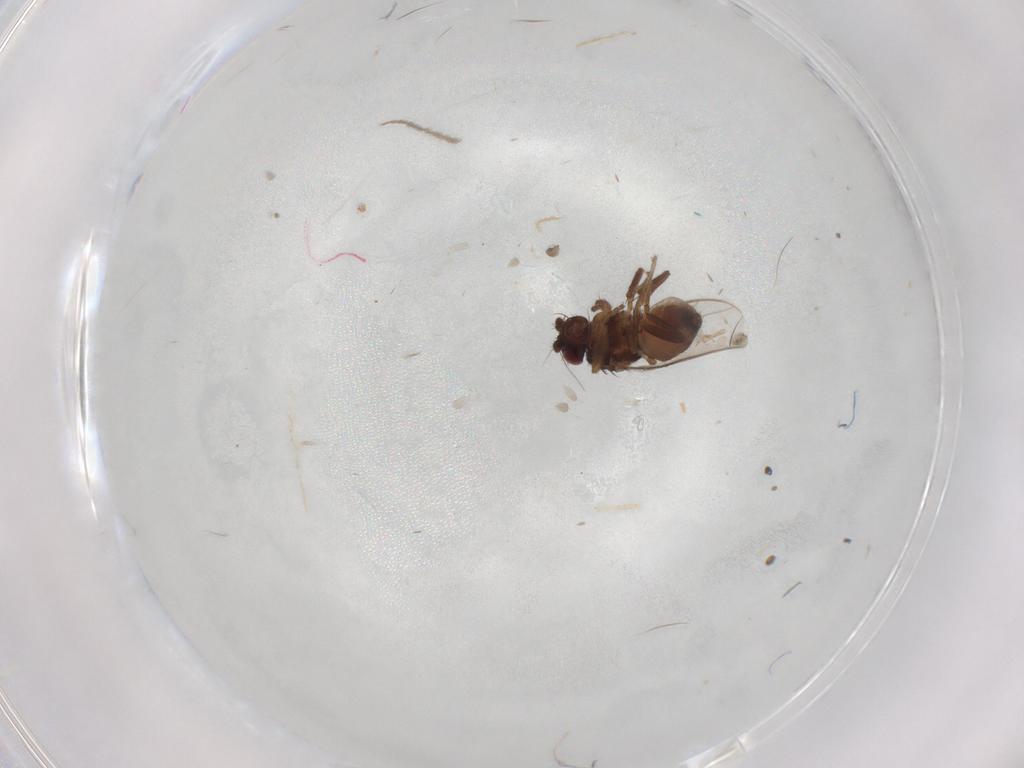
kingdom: Animalia
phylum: Arthropoda
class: Insecta
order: Diptera
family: Sphaeroceridae
